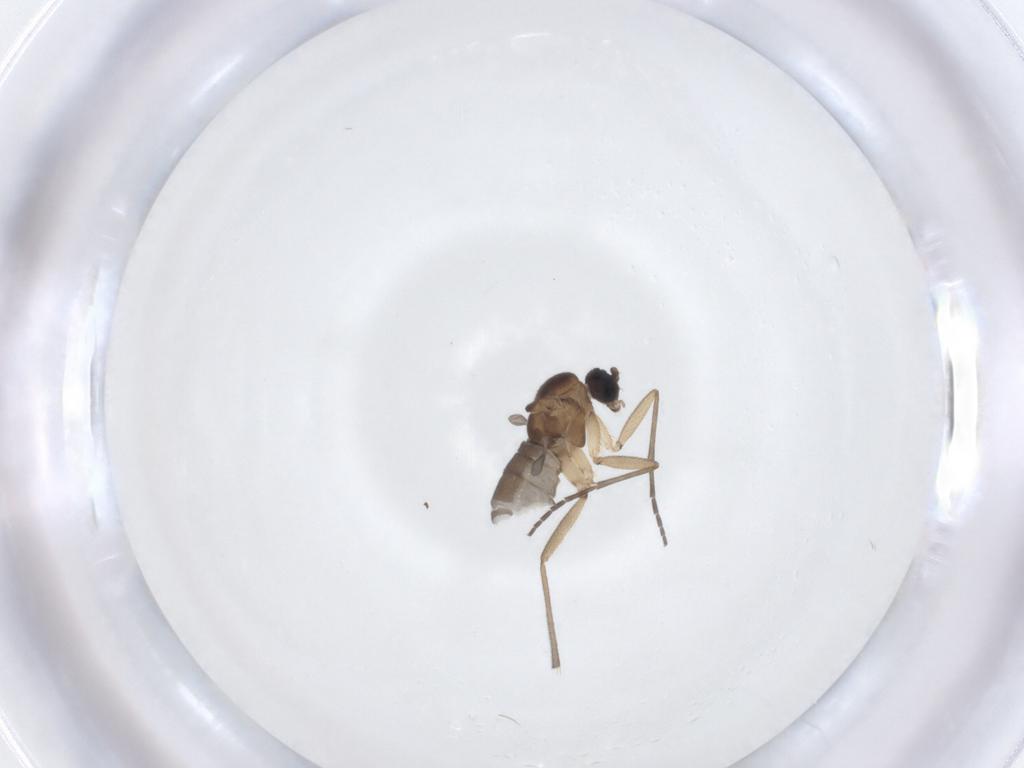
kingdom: Animalia
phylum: Arthropoda
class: Insecta
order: Diptera
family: Sciaridae
